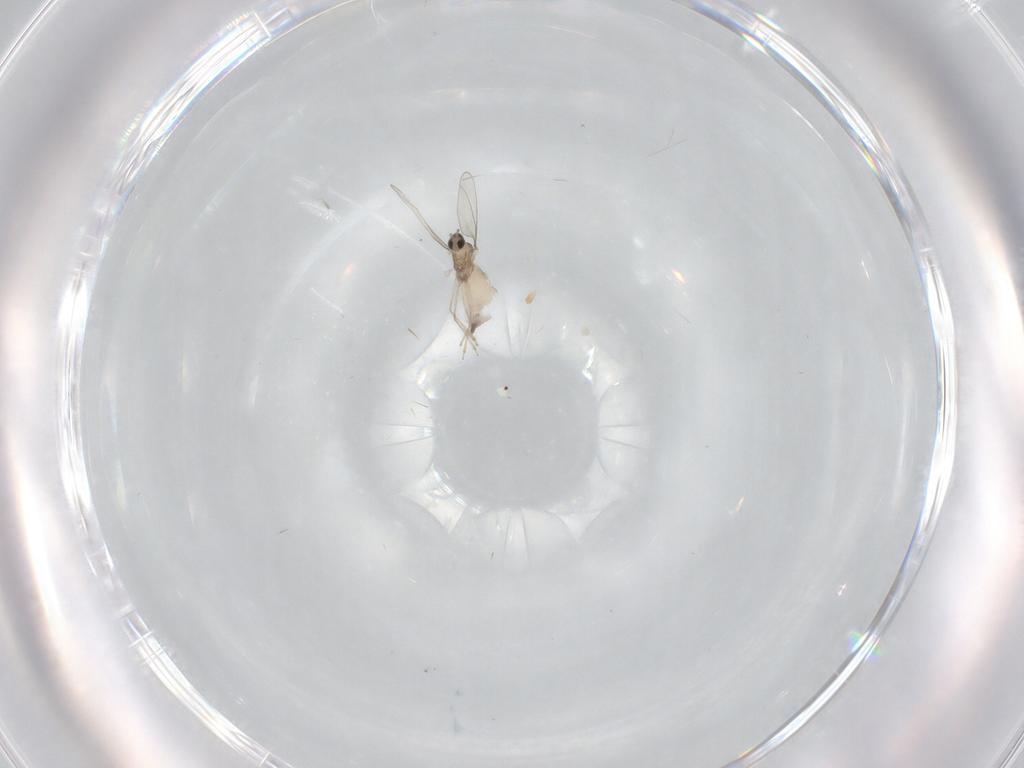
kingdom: Animalia
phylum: Arthropoda
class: Insecta
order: Diptera
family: Cecidomyiidae
